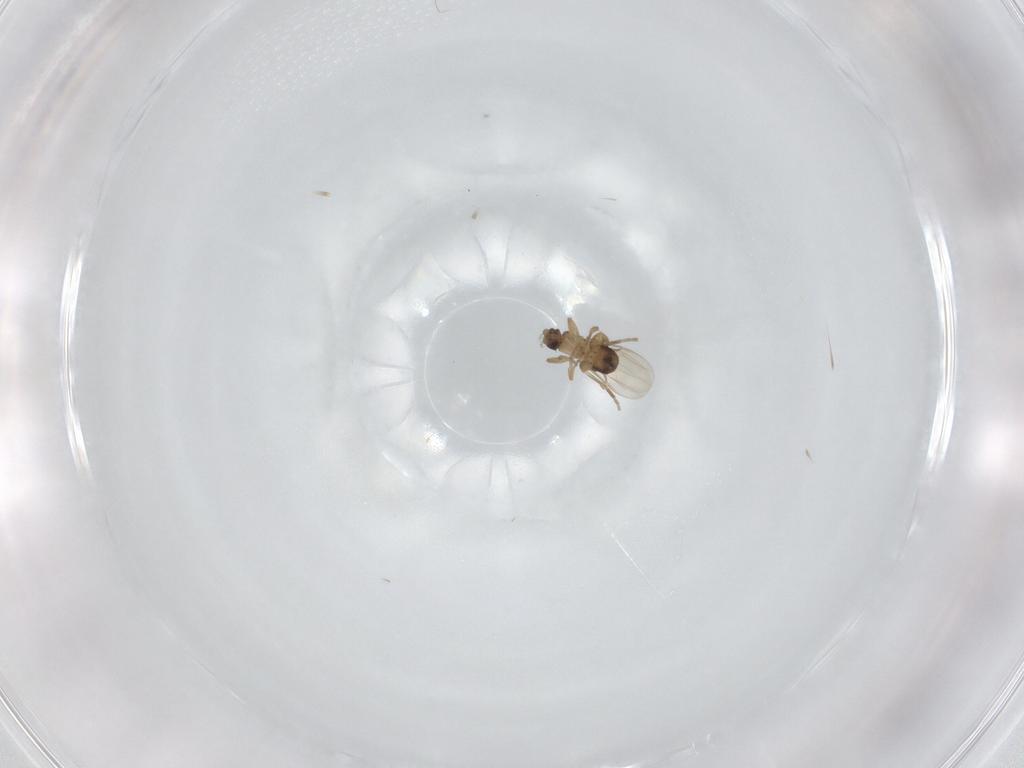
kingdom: Animalia
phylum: Arthropoda
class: Insecta
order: Diptera
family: Phoridae
